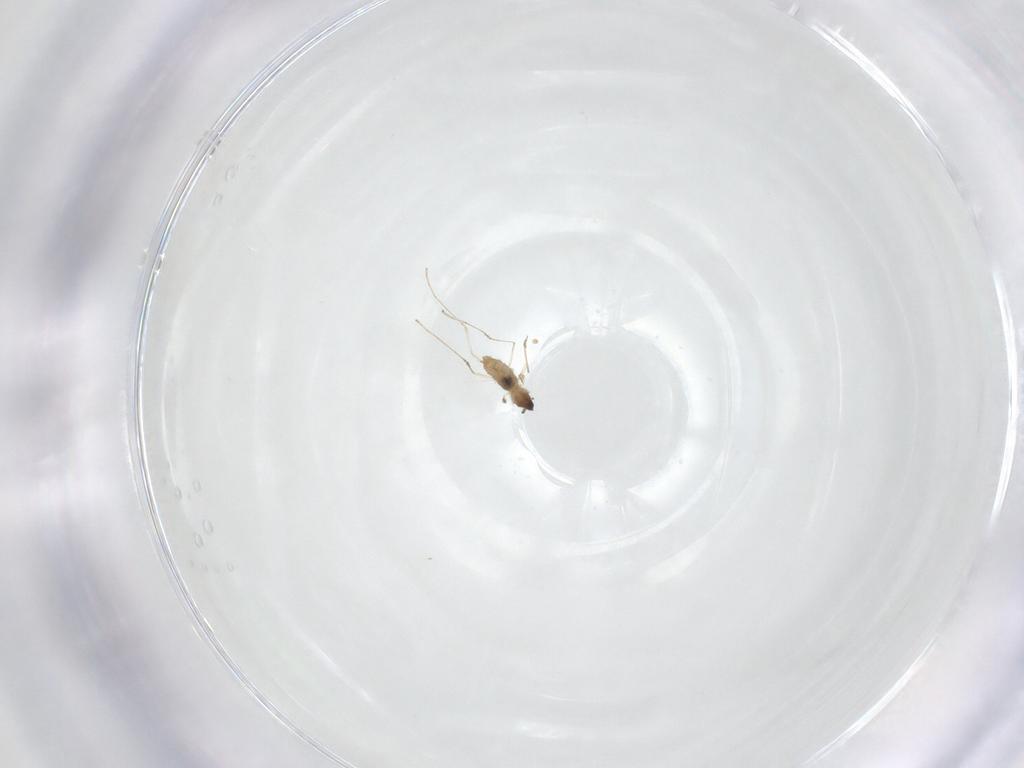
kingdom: Animalia
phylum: Arthropoda
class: Insecta
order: Diptera
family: Cecidomyiidae
